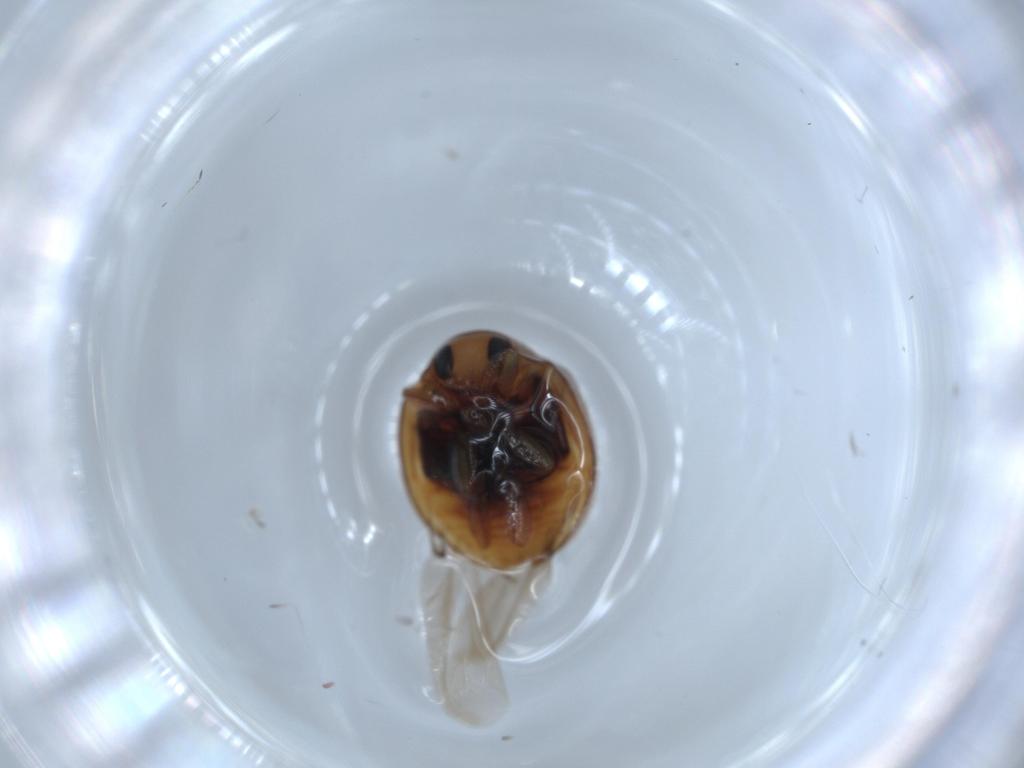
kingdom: Animalia
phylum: Arthropoda
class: Insecta
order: Coleoptera
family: Coccinellidae
